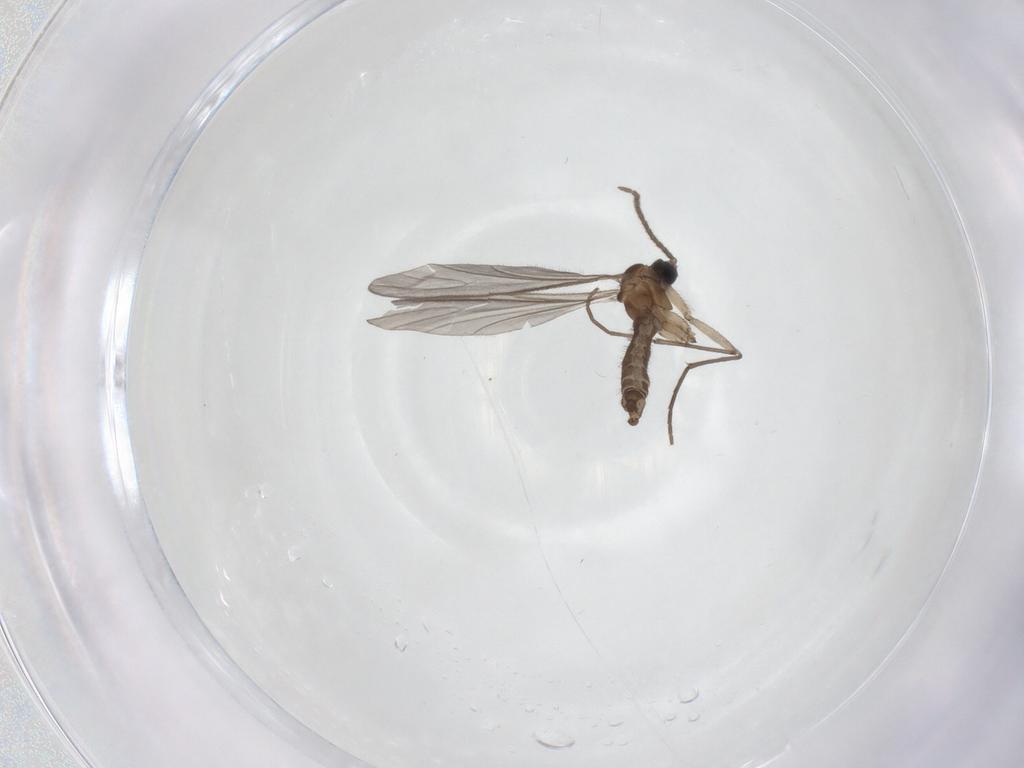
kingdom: Animalia
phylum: Arthropoda
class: Insecta
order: Diptera
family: Sciaridae
